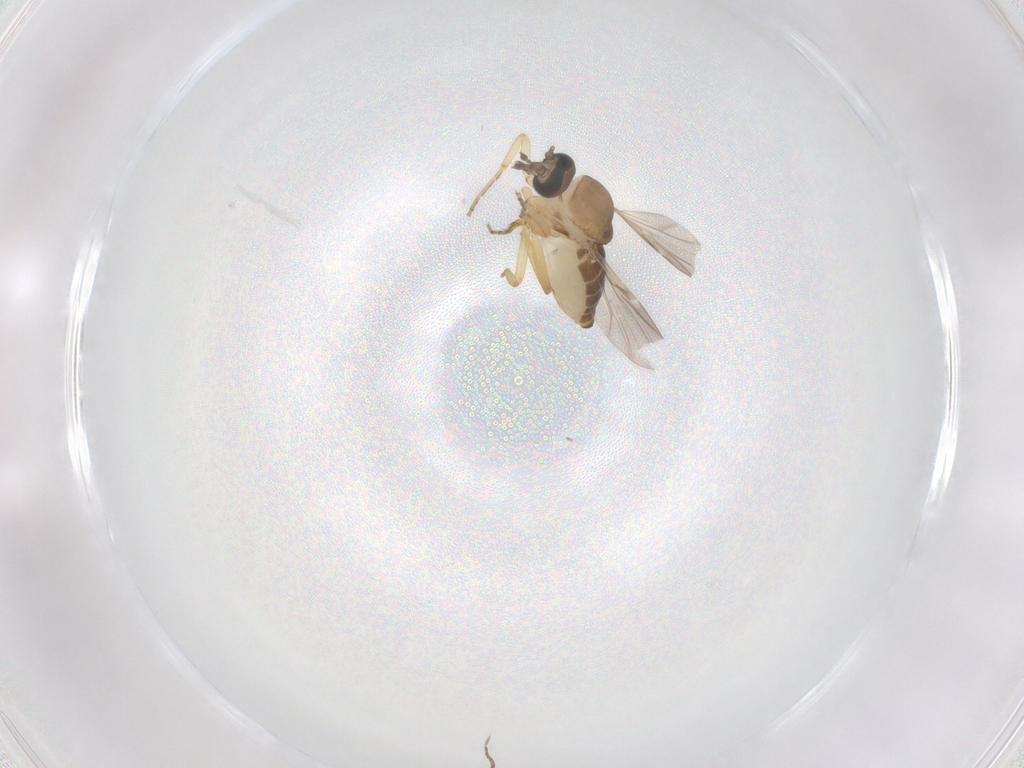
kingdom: Animalia
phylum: Arthropoda
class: Insecta
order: Diptera
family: Ceratopogonidae
